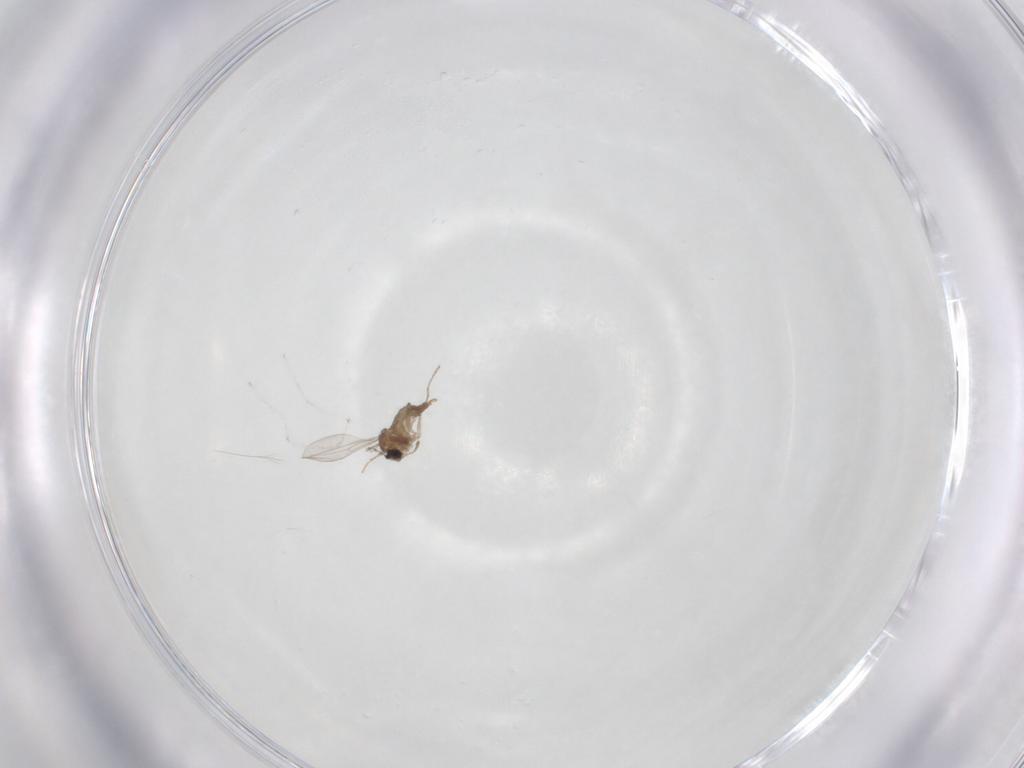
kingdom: Animalia
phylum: Arthropoda
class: Insecta
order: Diptera
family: Cecidomyiidae
